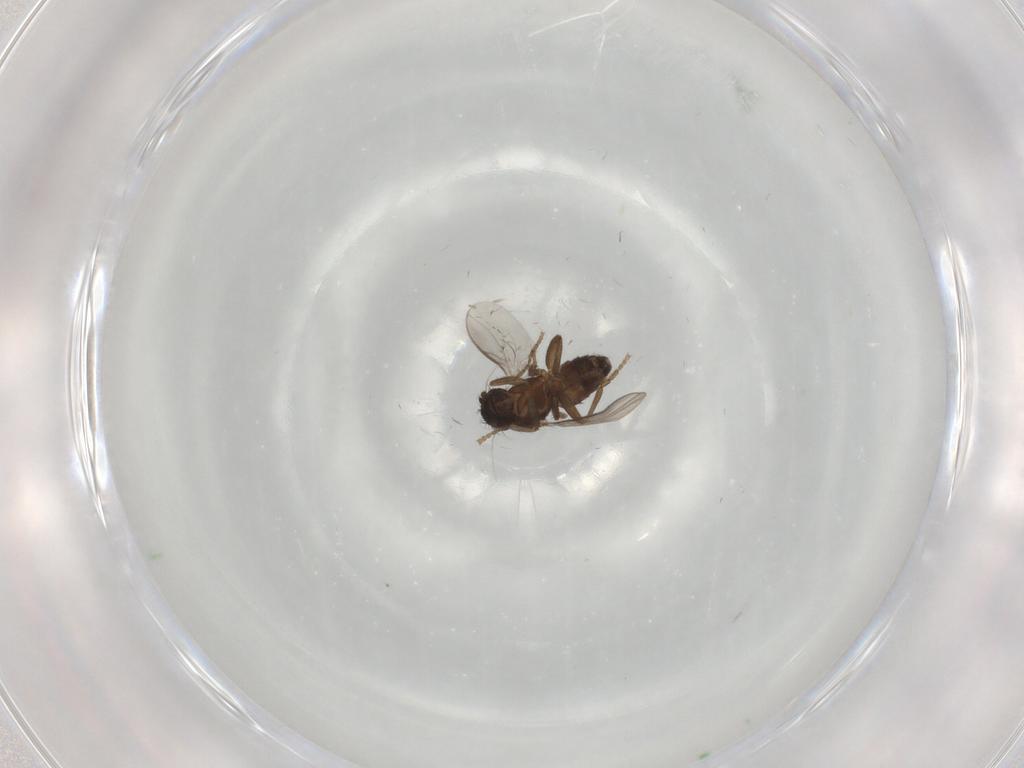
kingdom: Animalia
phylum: Arthropoda
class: Insecta
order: Diptera
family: Sphaeroceridae
